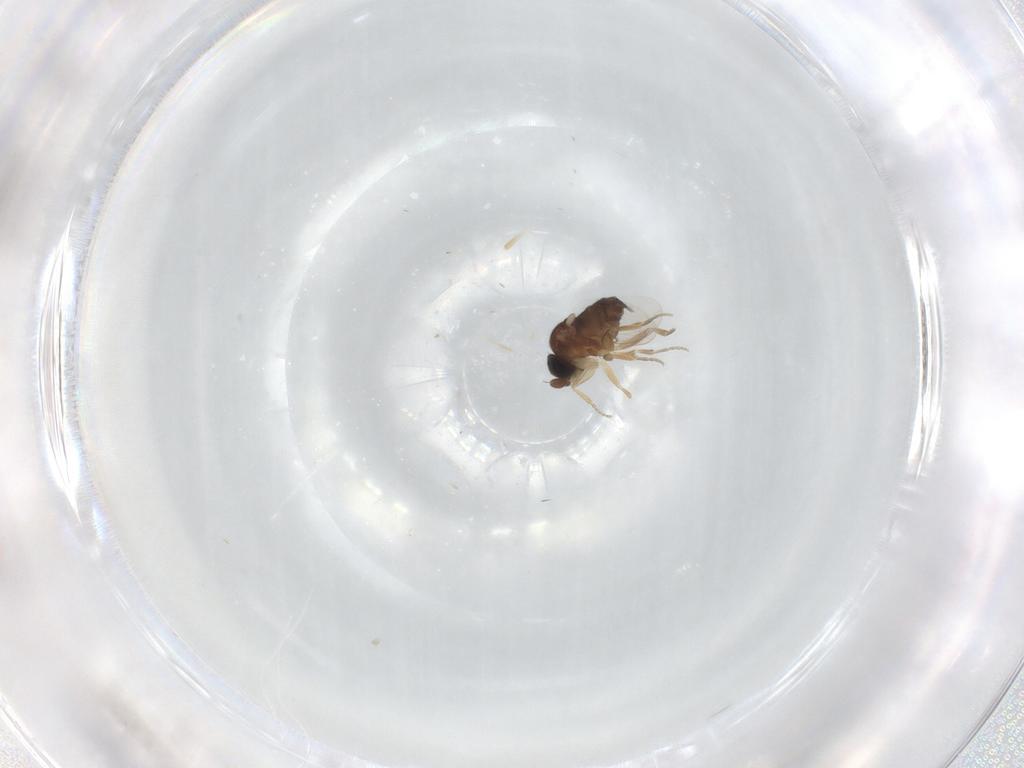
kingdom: Animalia
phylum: Arthropoda
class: Insecta
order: Diptera
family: Phoridae
